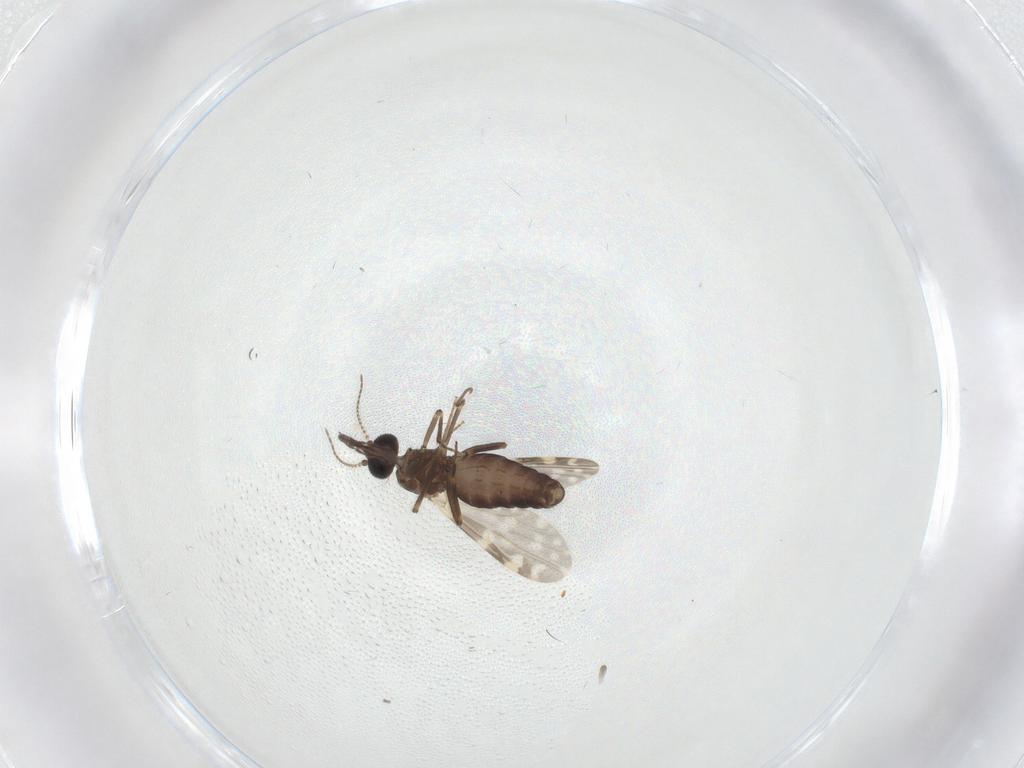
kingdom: Animalia
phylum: Arthropoda
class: Insecta
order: Diptera
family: Ceratopogonidae
